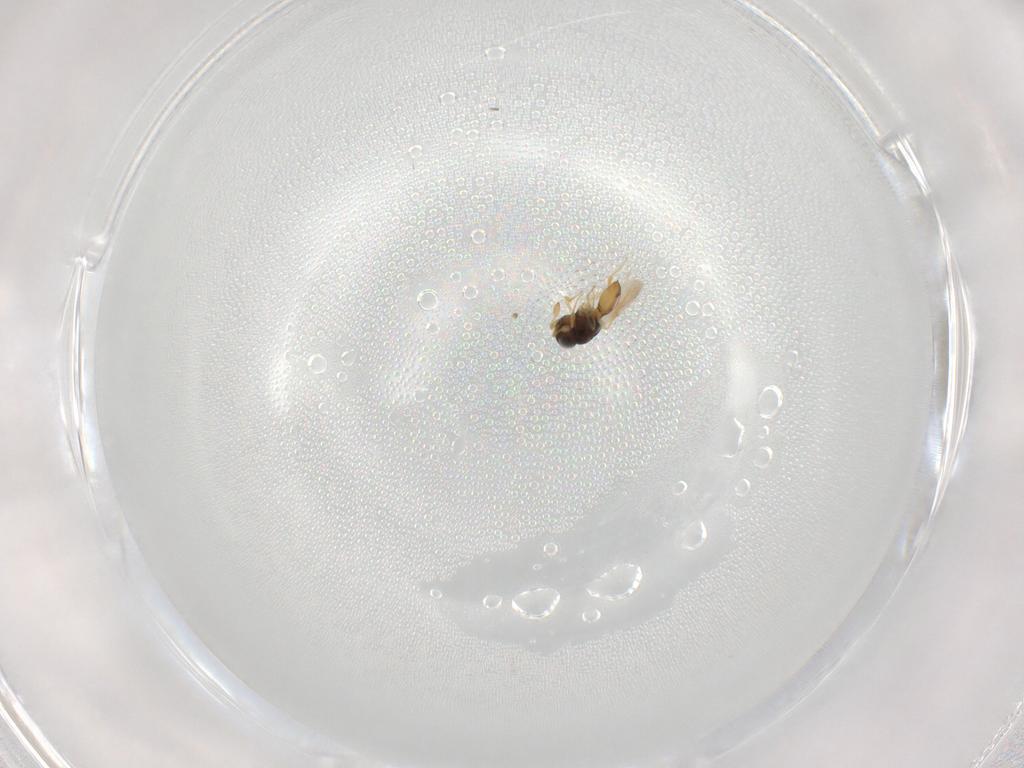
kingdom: Animalia
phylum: Arthropoda
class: Insecta
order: Hymenoptera
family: Scelionidae
